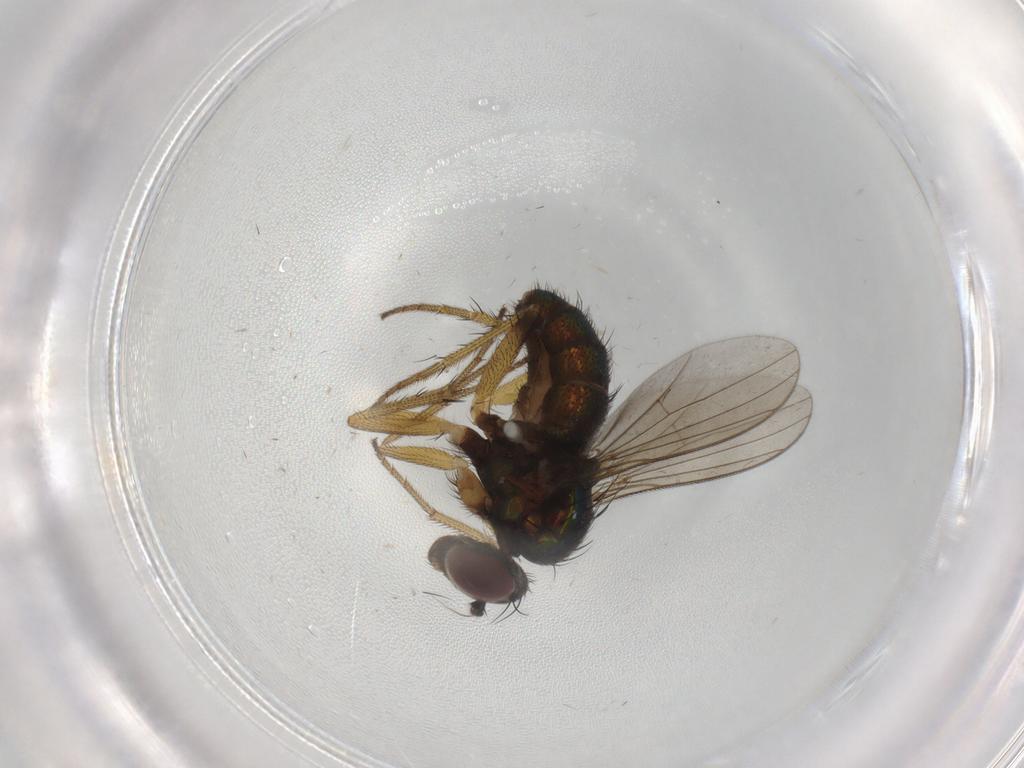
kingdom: Animalia
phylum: Arthropoda
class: Insecta
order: Diptera
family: Dolichopodidae
